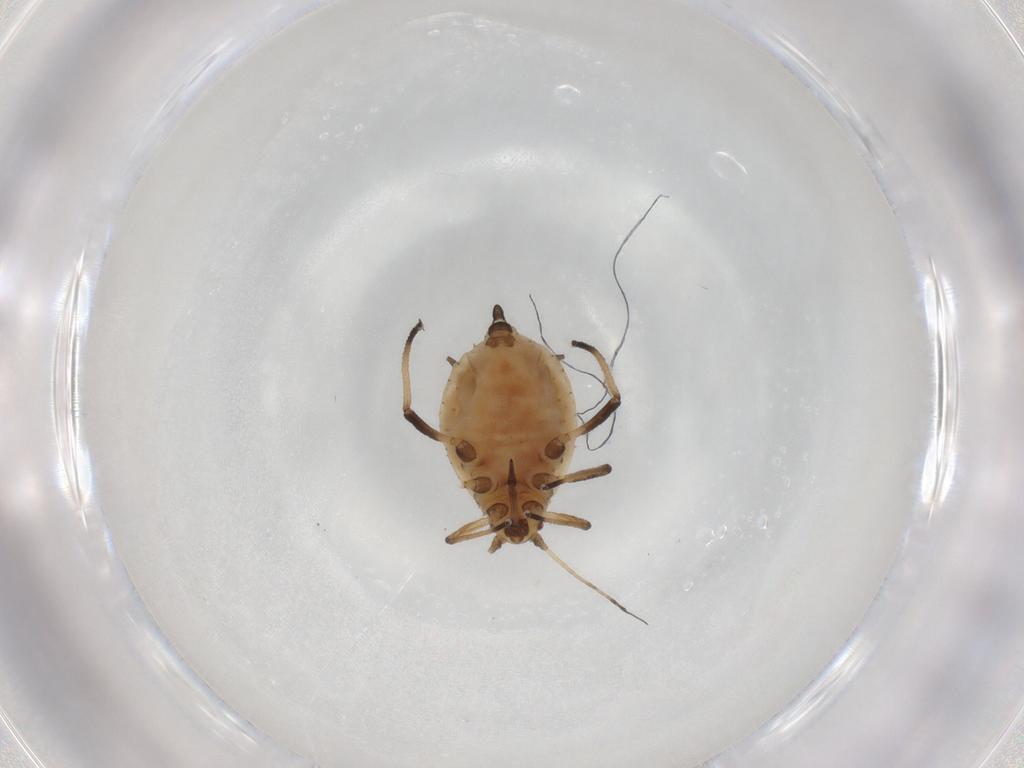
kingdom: Animalia
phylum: Arthropoda
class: Insecta
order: Hemiptera
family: Aphididae
